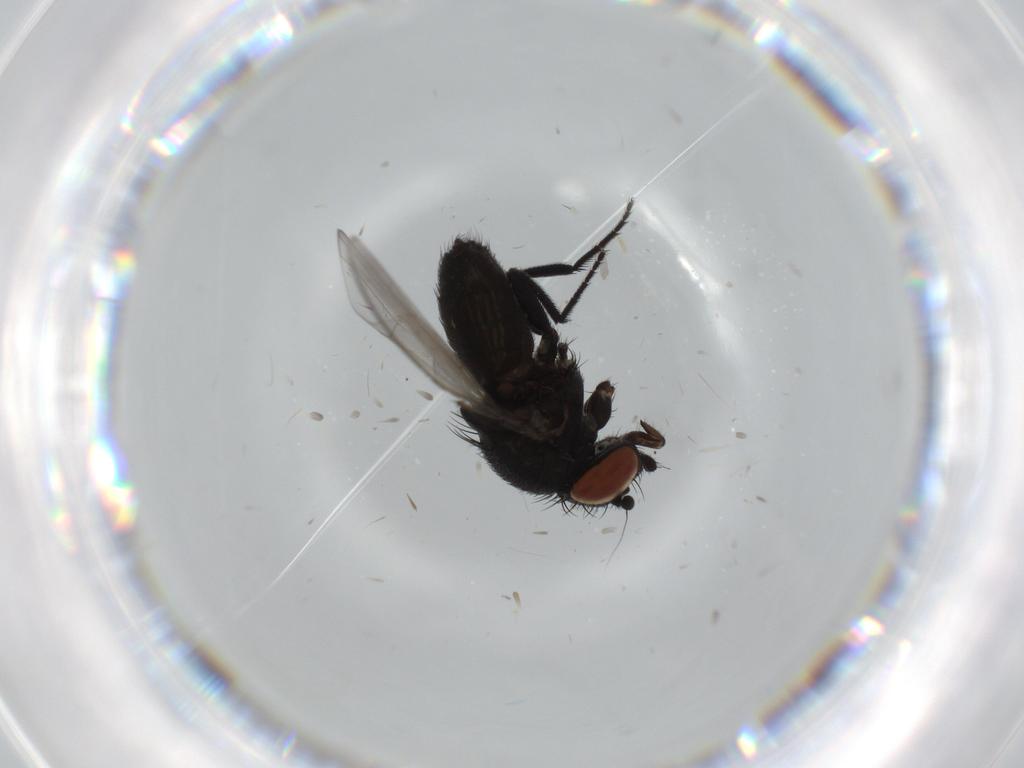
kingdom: Animalia
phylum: Arthropoda
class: Insecta
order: Diptera
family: Milichiidae
